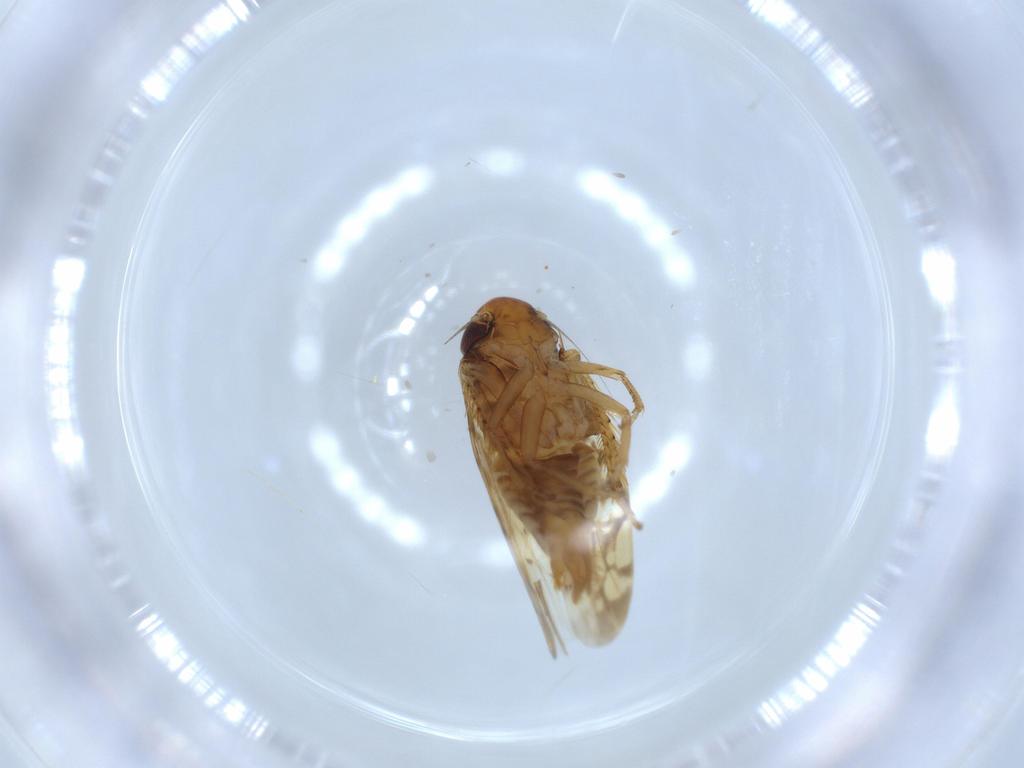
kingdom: Animalia
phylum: Arthropoda
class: Insecta
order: Hemiptera
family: Cicadellidae
